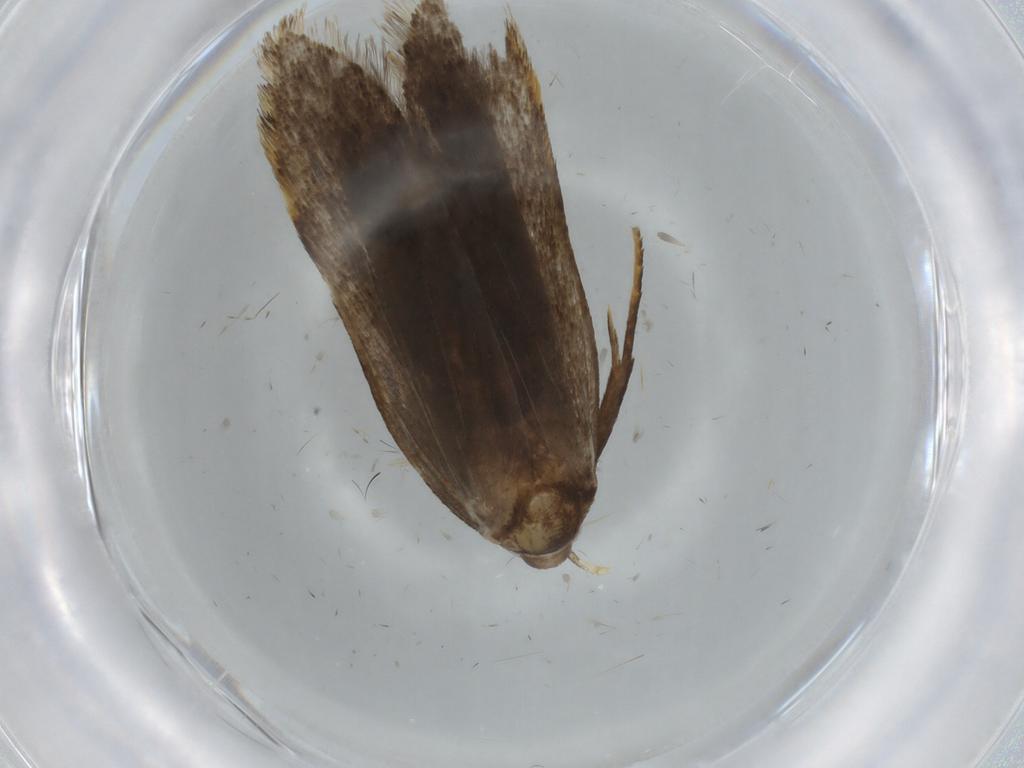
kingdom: Animalia
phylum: Arthropoda
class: Insecta
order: Lepidoptera
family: Gelechiidae
